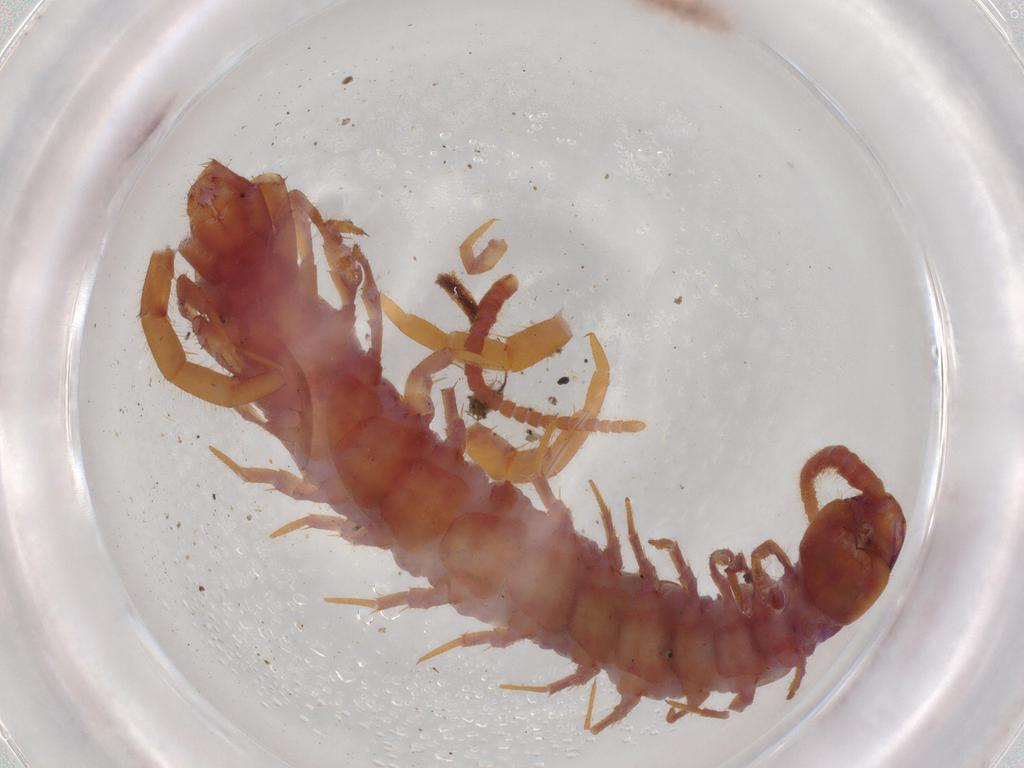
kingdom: Animalia
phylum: Arthropoda
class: Chilopoda
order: Lithobiomorpha
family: Lithobiidae
